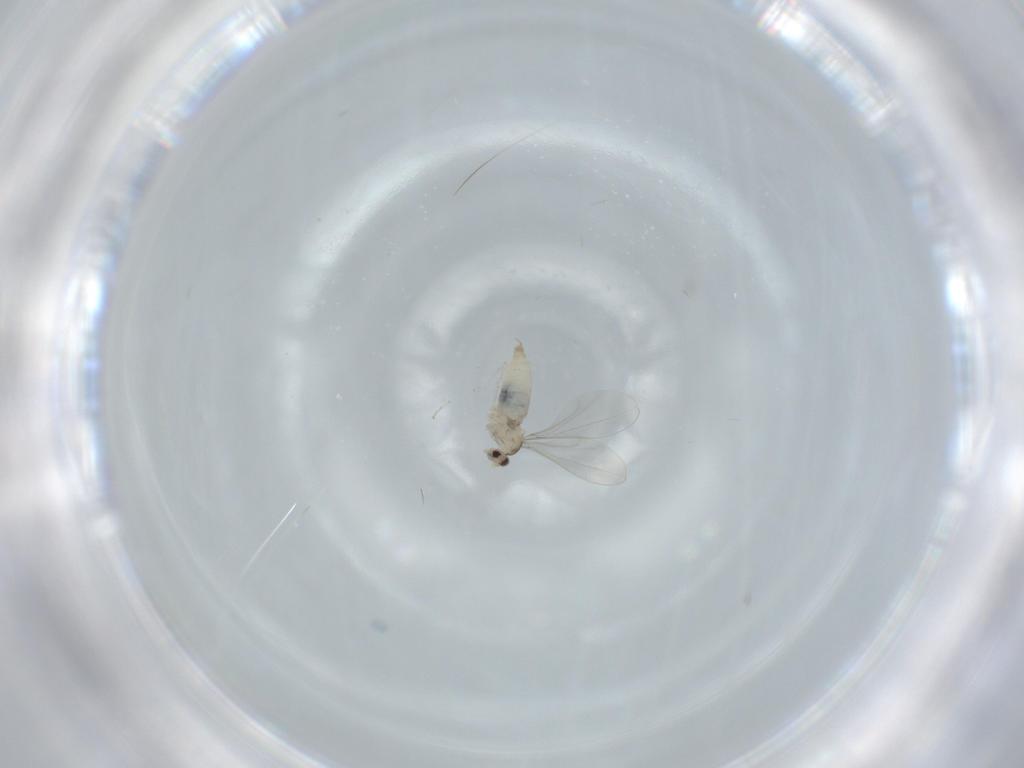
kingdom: Animalia
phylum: Arthropoda
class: Insecta
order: Diptera
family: Cecidomyiidae
